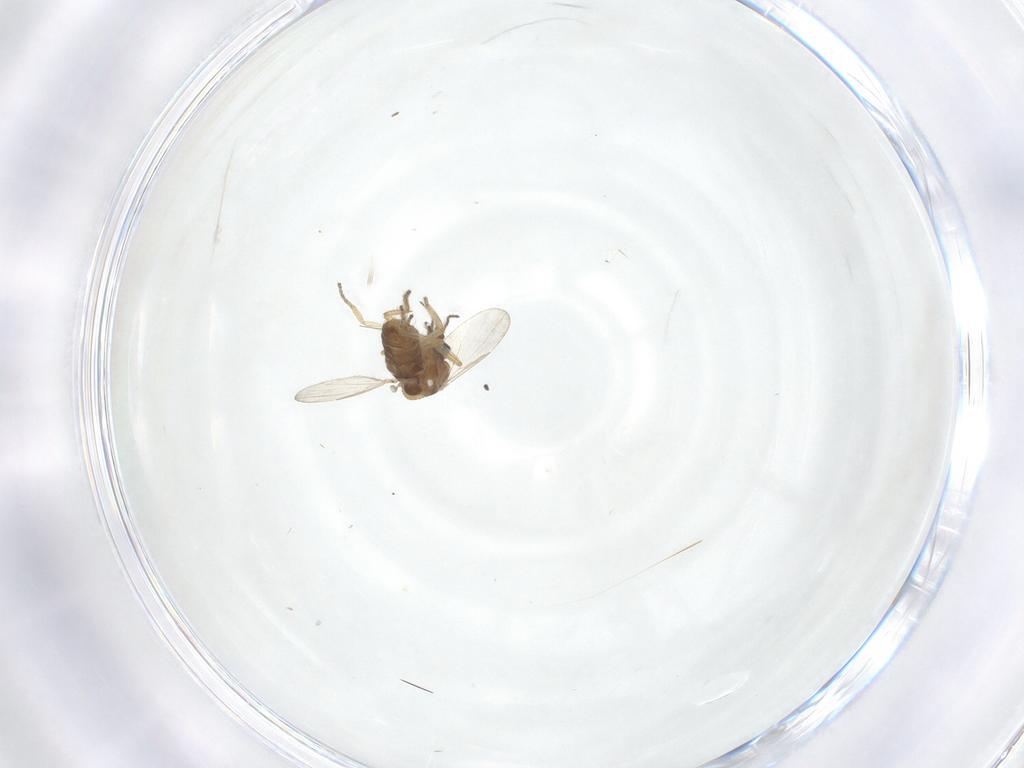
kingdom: Animalia
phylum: Arthropoda
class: Insecta
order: Diptera
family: Ceratopogonidae
